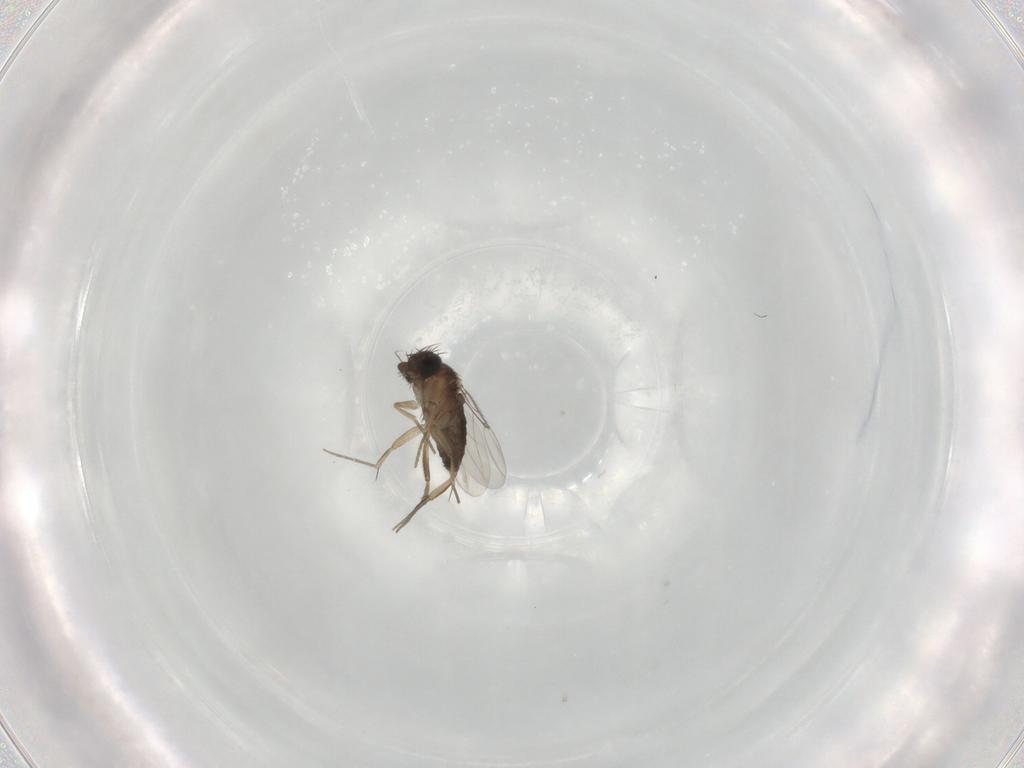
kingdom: Animalia
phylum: Arthropoda
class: Insecta
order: Diptera
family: Phoridae
